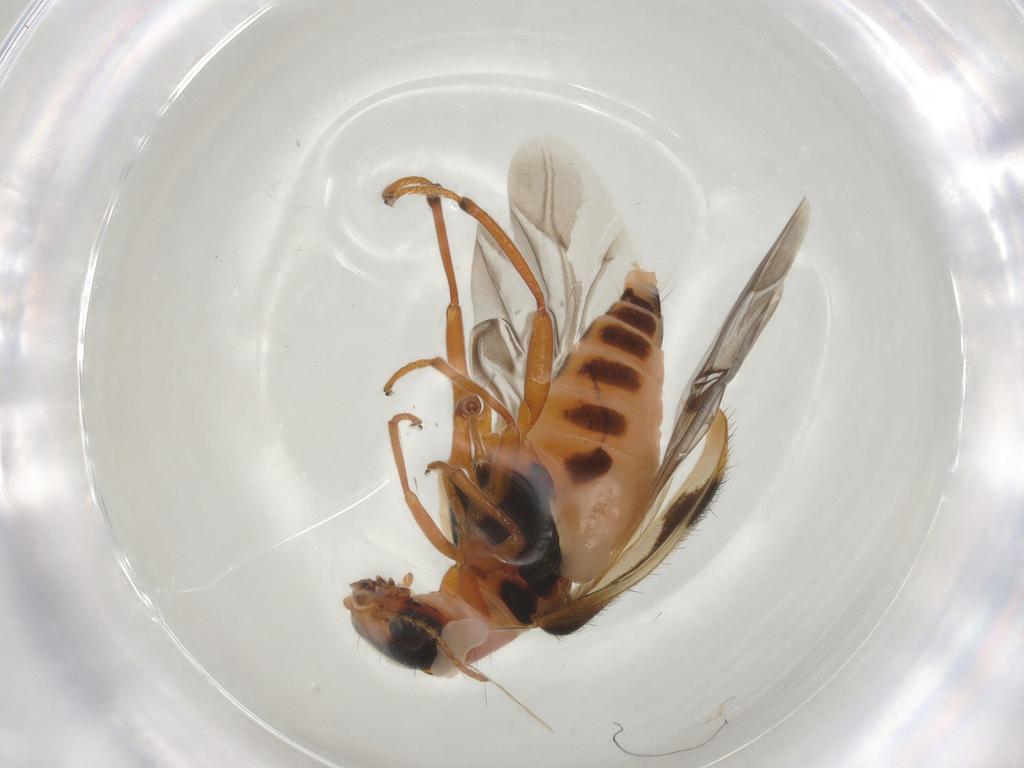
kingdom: Animalia
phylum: Arthropoda
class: Insecta
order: Coleoptera
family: Melyridae
